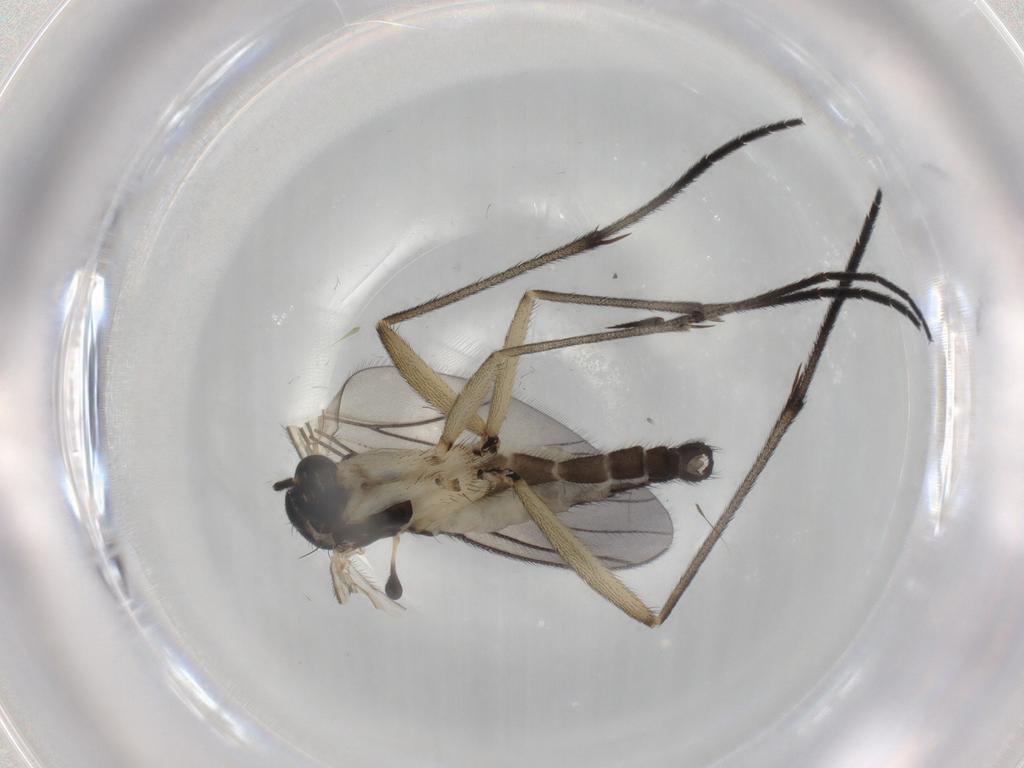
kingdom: Animalia
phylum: Arthropoda
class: Insecta
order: Diptera
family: Sciaridae
